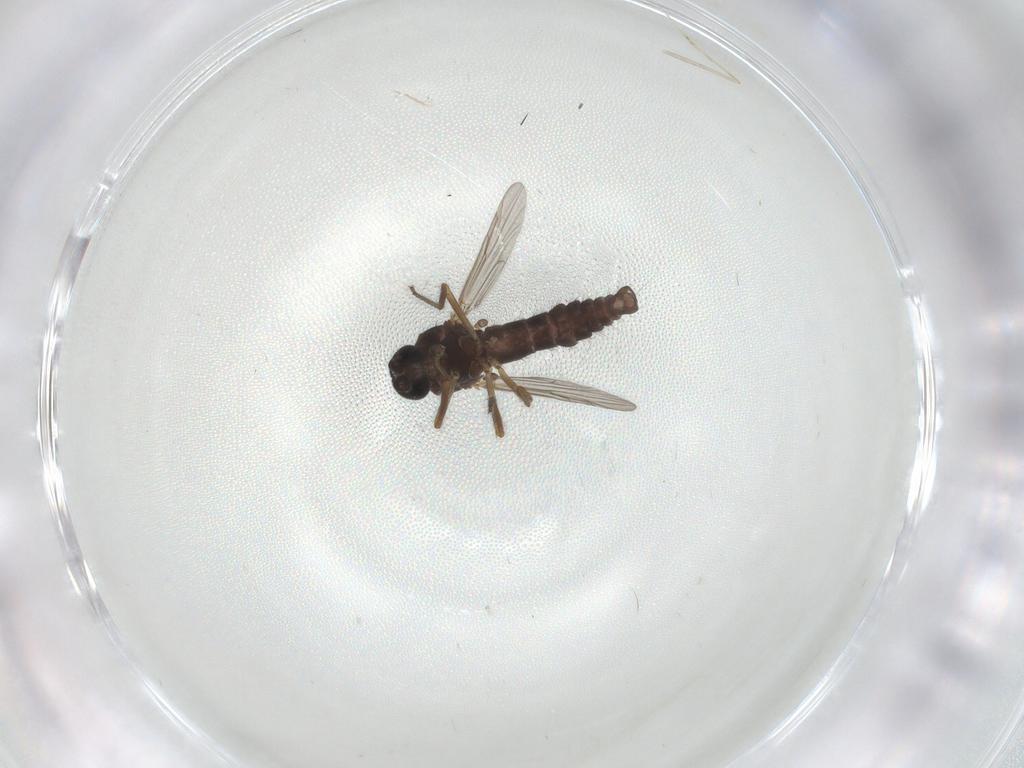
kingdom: Animalia
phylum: Arthropoda
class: Insecta
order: Diptera
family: Ceratopogonidae
